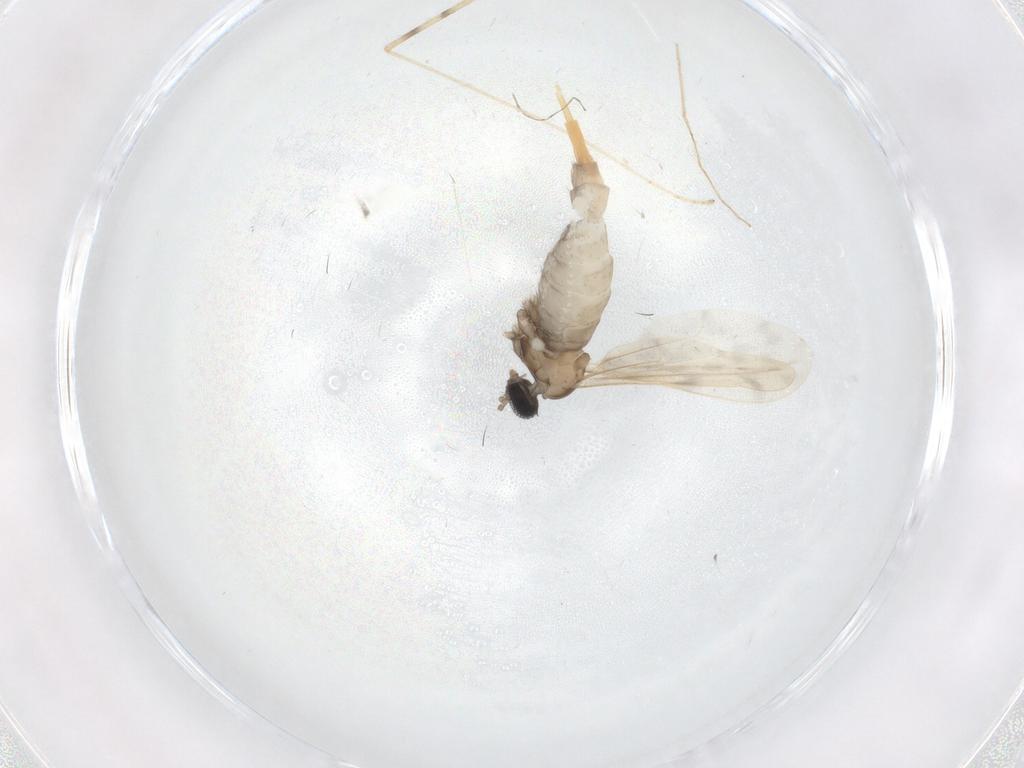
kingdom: Animalia
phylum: Arthropoda
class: Insecta
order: Diptera
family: Cecidomyiidae
